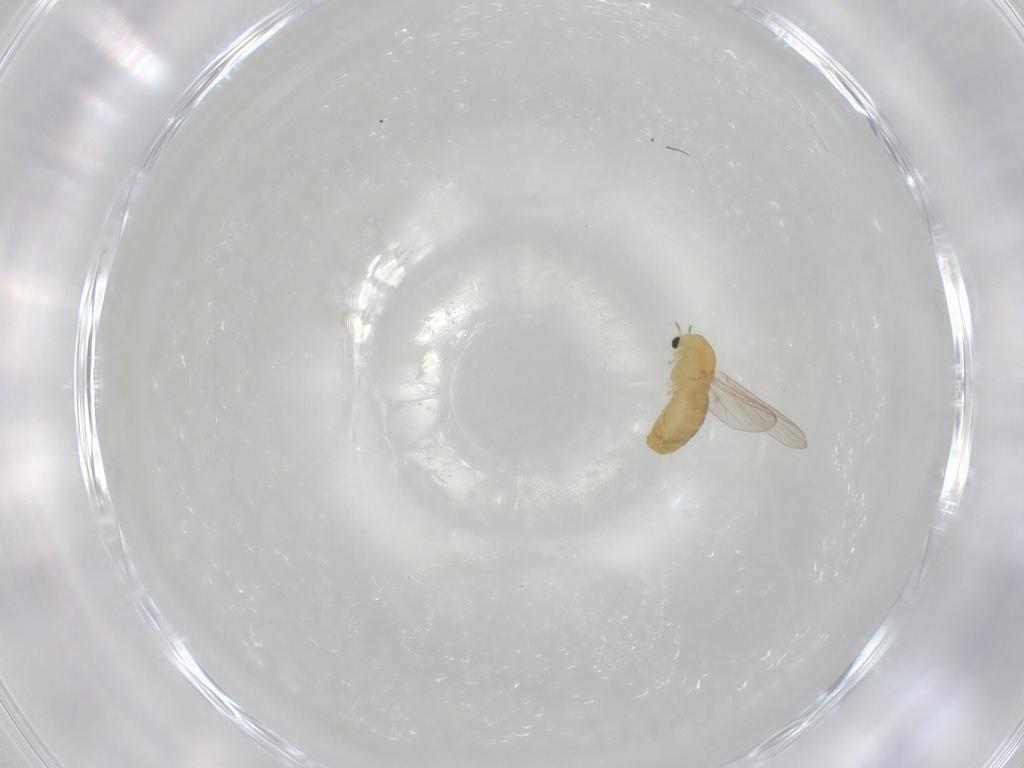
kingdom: Animalia
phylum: Arthropoda
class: Insecta
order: Diptera
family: Chironomidae
